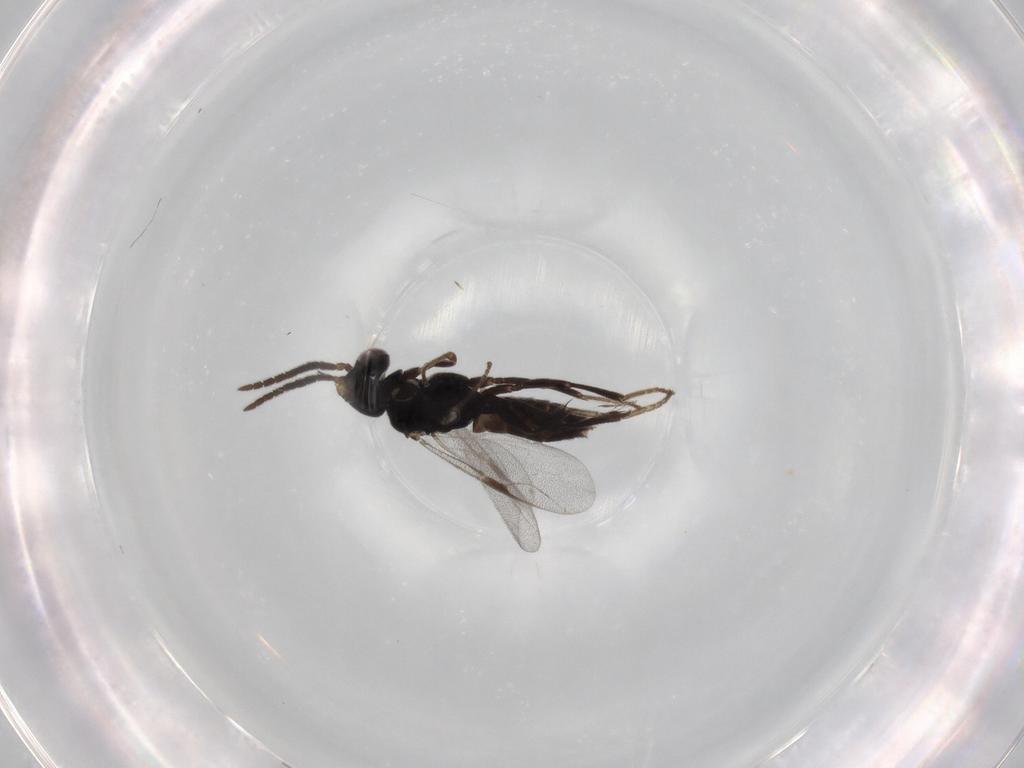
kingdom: Animalia
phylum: Arthropoda
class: Insecta
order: Hymenoptera
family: Dryinidae
